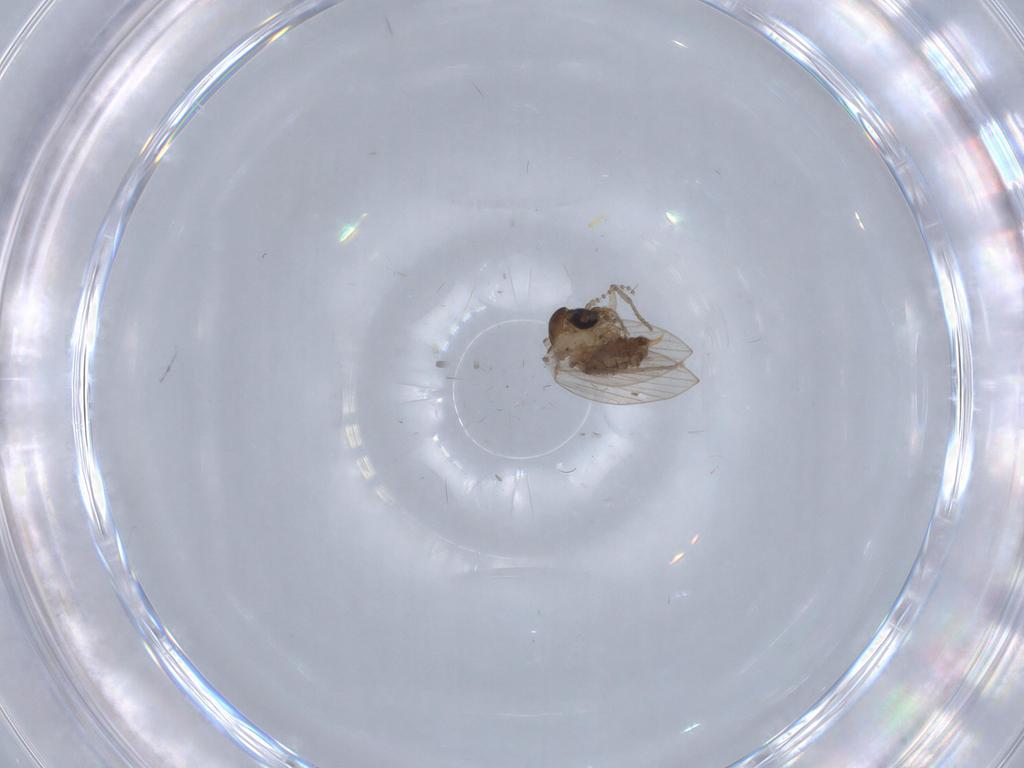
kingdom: Animalia
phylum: Arthropoda
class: Insecta
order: Diptera
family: Psychodidae
